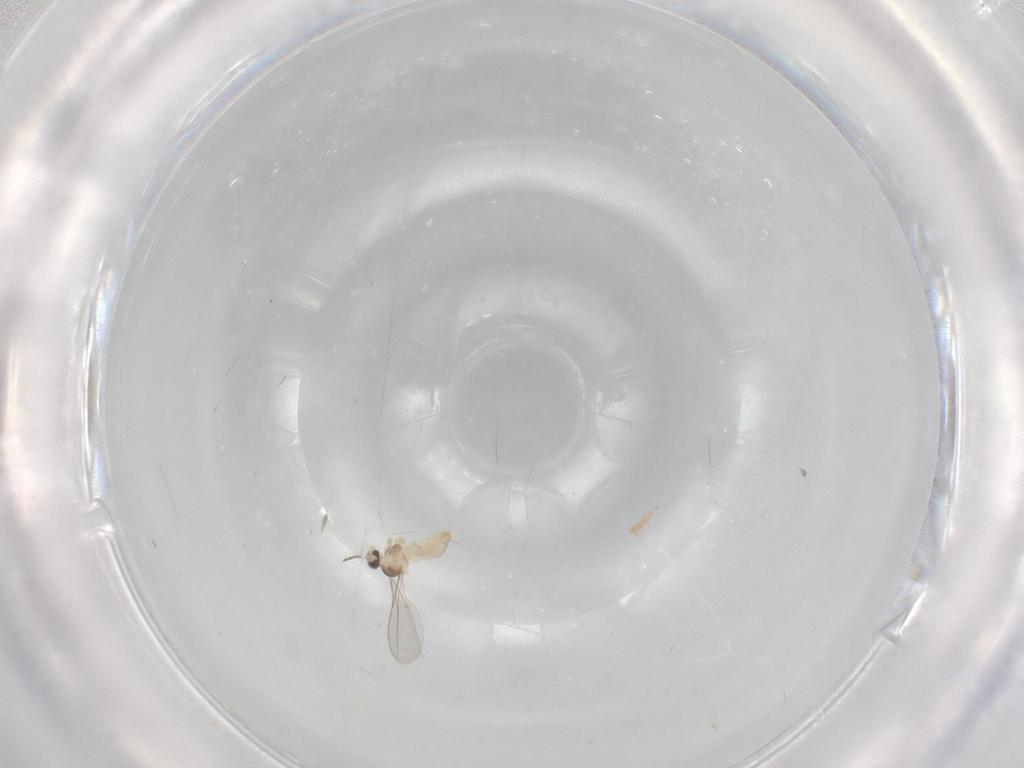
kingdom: Animalia
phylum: Arthropoda
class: Insecta
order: Diptera
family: Cecidomyiidae
